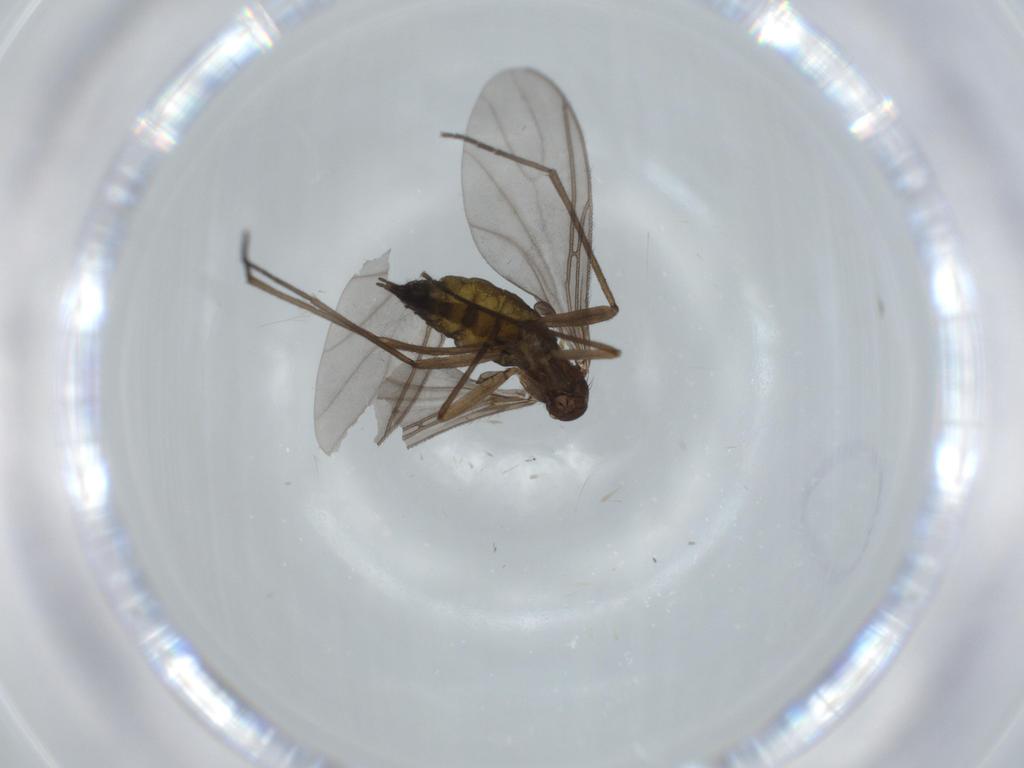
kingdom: Animalia
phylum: Arthropoda
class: Insecta
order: Diptera
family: Sciaridae
